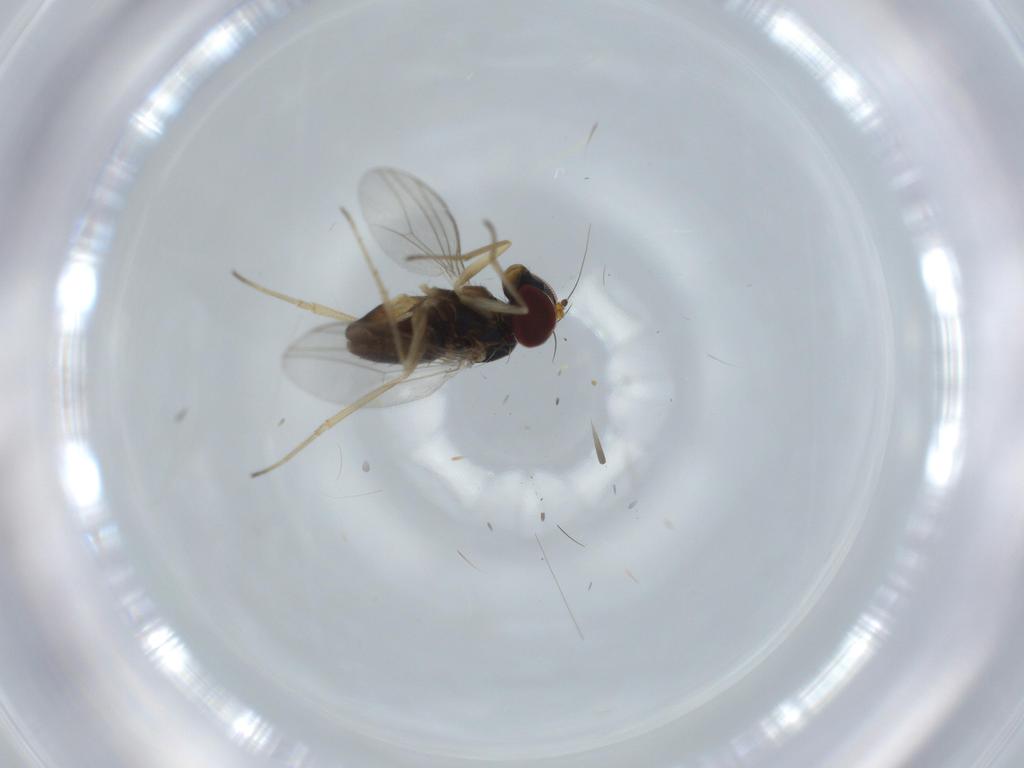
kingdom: Animalia
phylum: Arthropoda
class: Insecta
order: Diptera
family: Dolichopodidae
